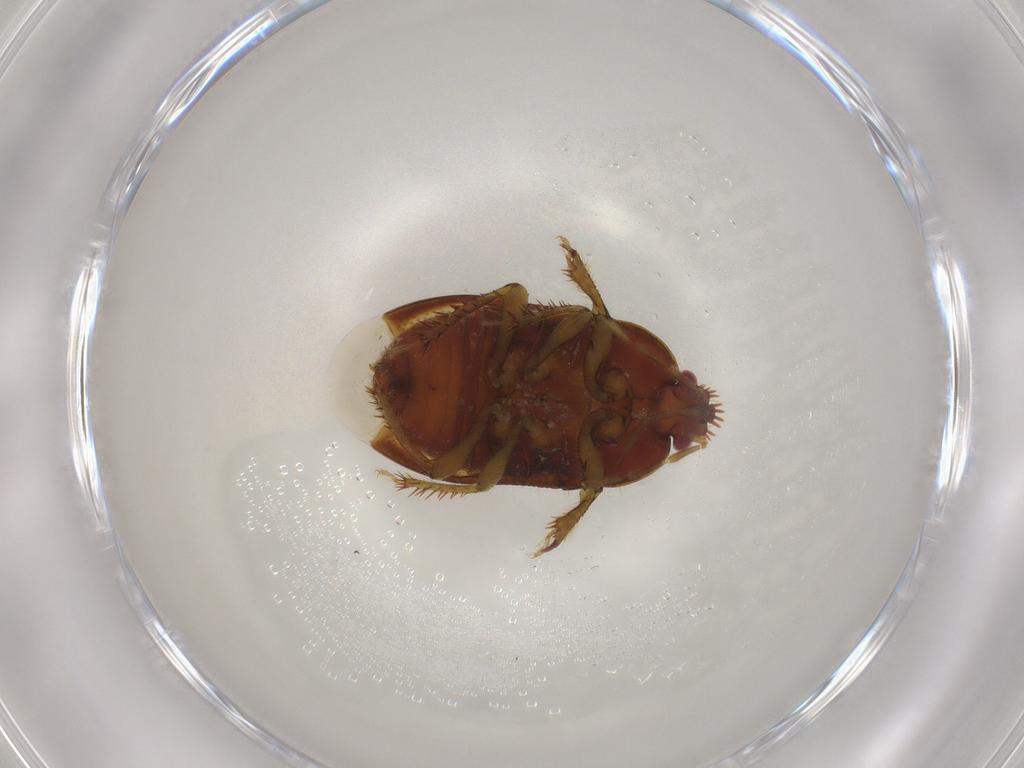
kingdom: Animalia
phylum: Arthropoda
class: Insecta
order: Hemiptera
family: Cydnidae
